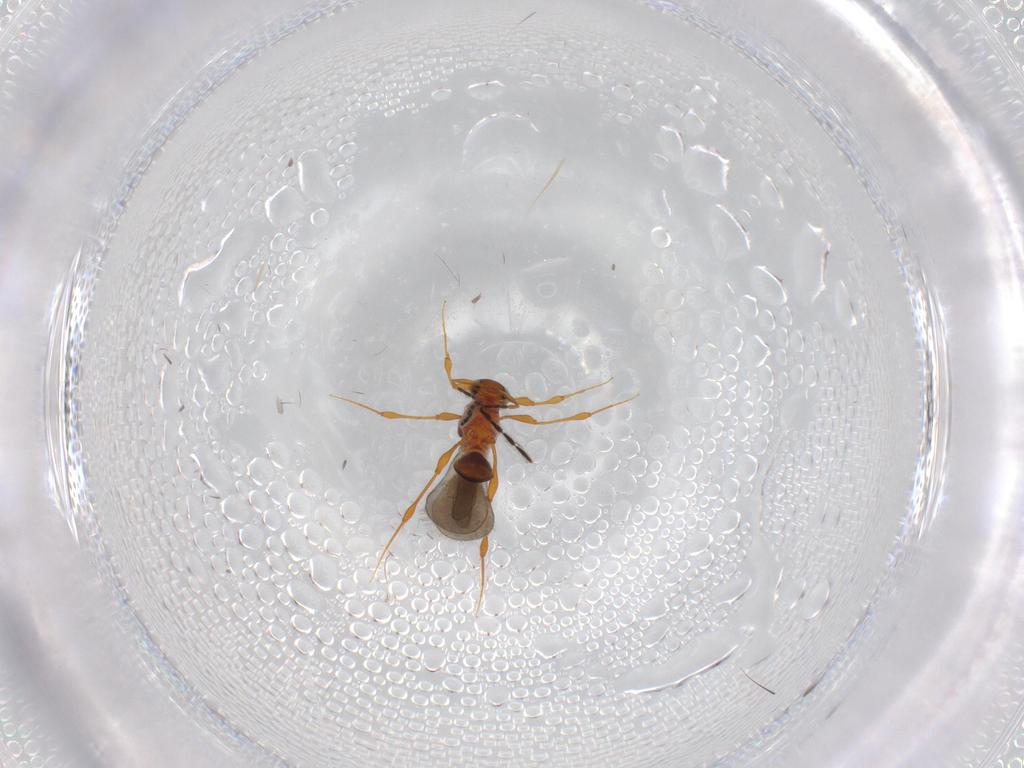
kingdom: Animalia
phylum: Arthropoda
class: Insecta
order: Hymenoptera
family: Platygastridae
